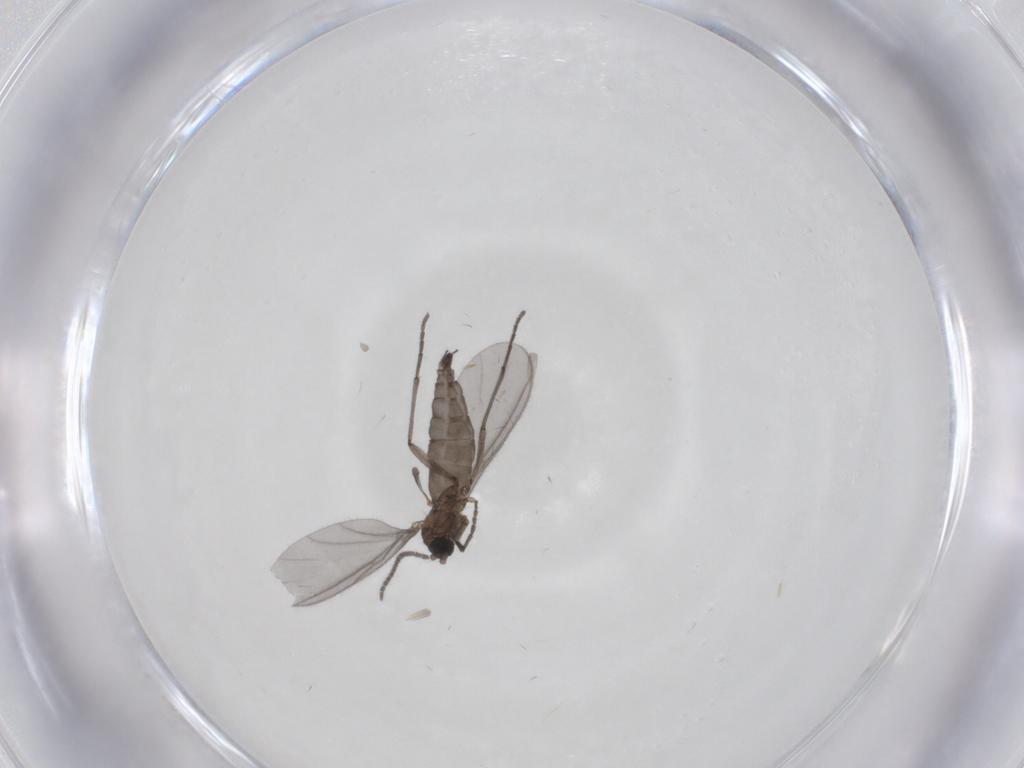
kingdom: Animalia
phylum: Arthropoda
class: Insecta
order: Diptera
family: Sciaridae
